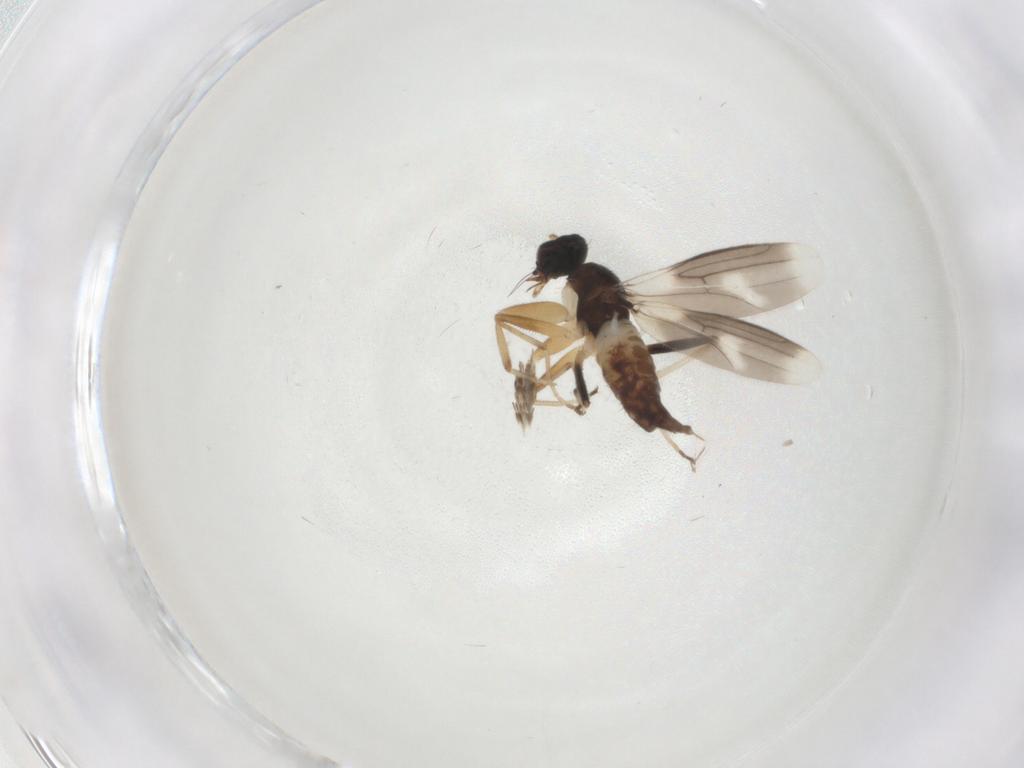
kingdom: Animalia
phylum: Arthropoda
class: Insecta
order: Diptera
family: Hybotidae
